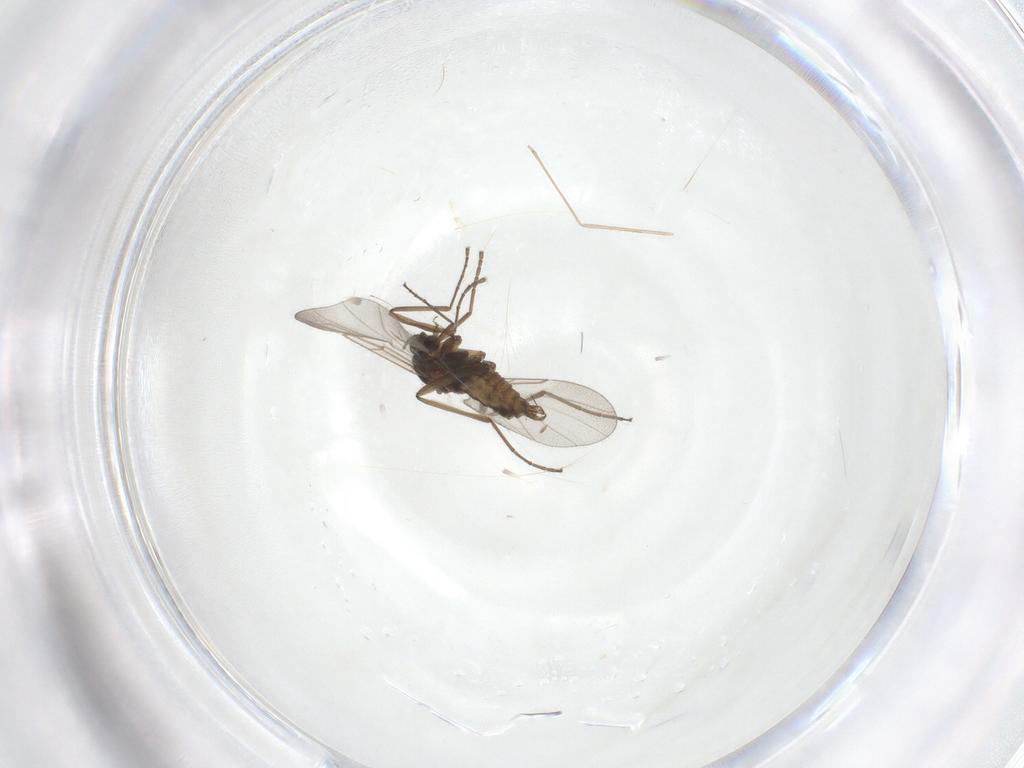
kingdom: Animalia
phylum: Arthropoda
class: Insecta
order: Diptera
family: Cecidomyiidae
